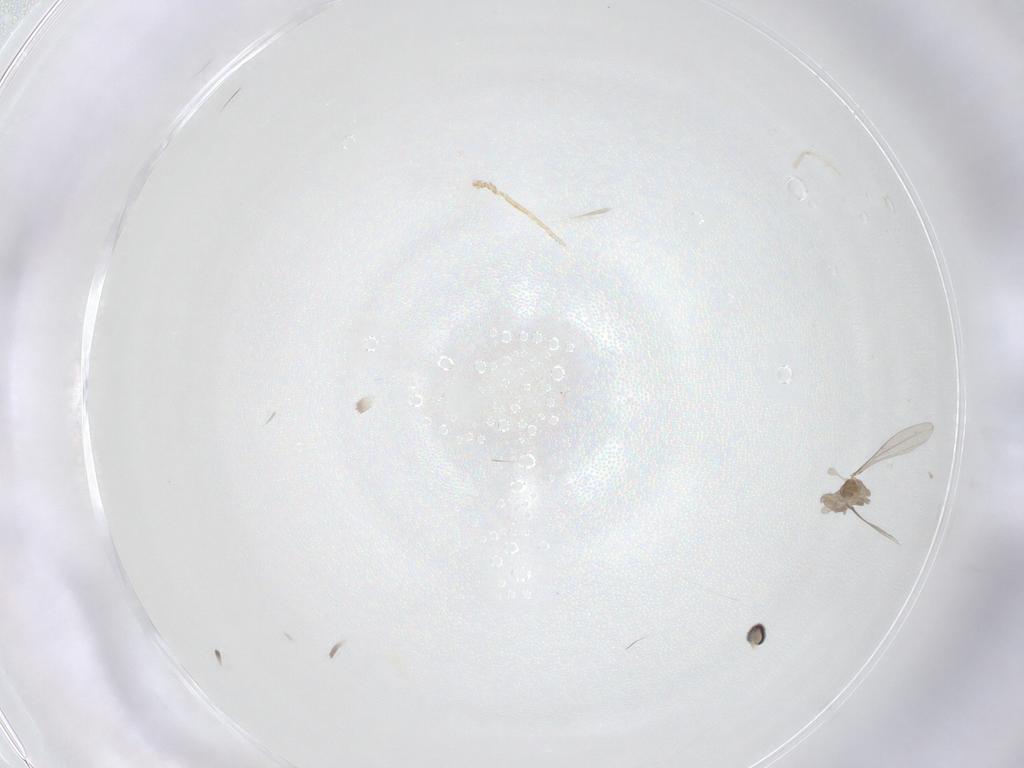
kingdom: Animalia
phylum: Arthropoda
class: Insecta
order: Diptera
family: Cecidomyiidae
